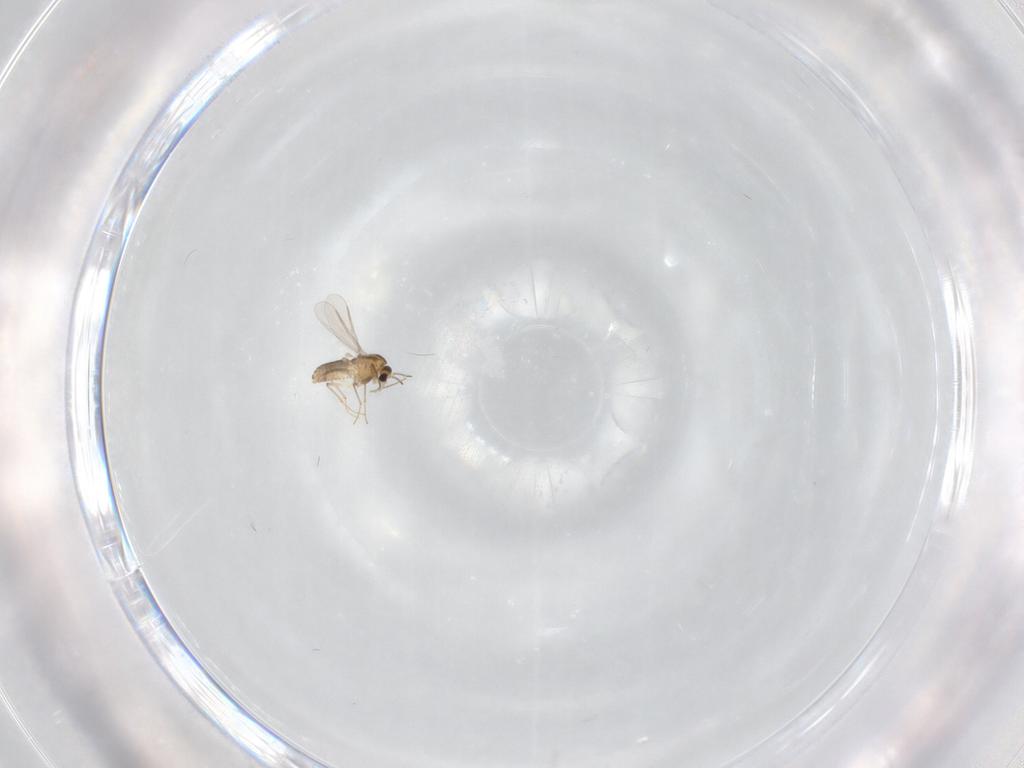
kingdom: Animalia
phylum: Arthropoda
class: Insecta
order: Diptera
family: Chironomidae
